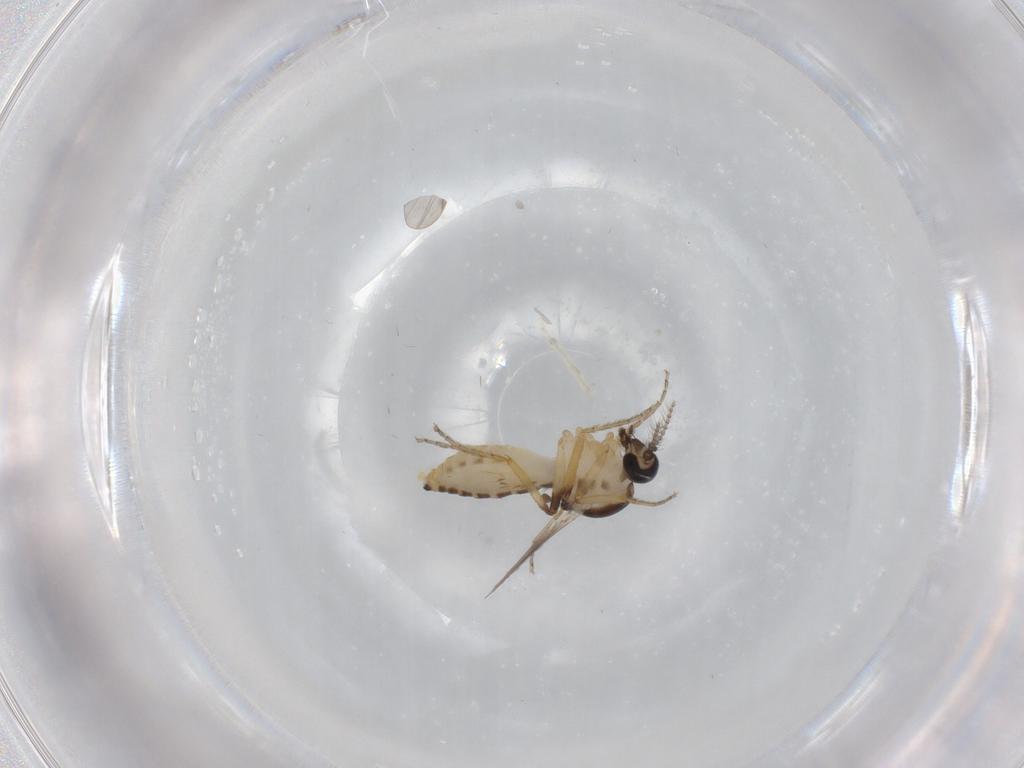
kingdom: Animalia
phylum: Arthropoda
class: Insecta
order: Diptera
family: Sciaridae
